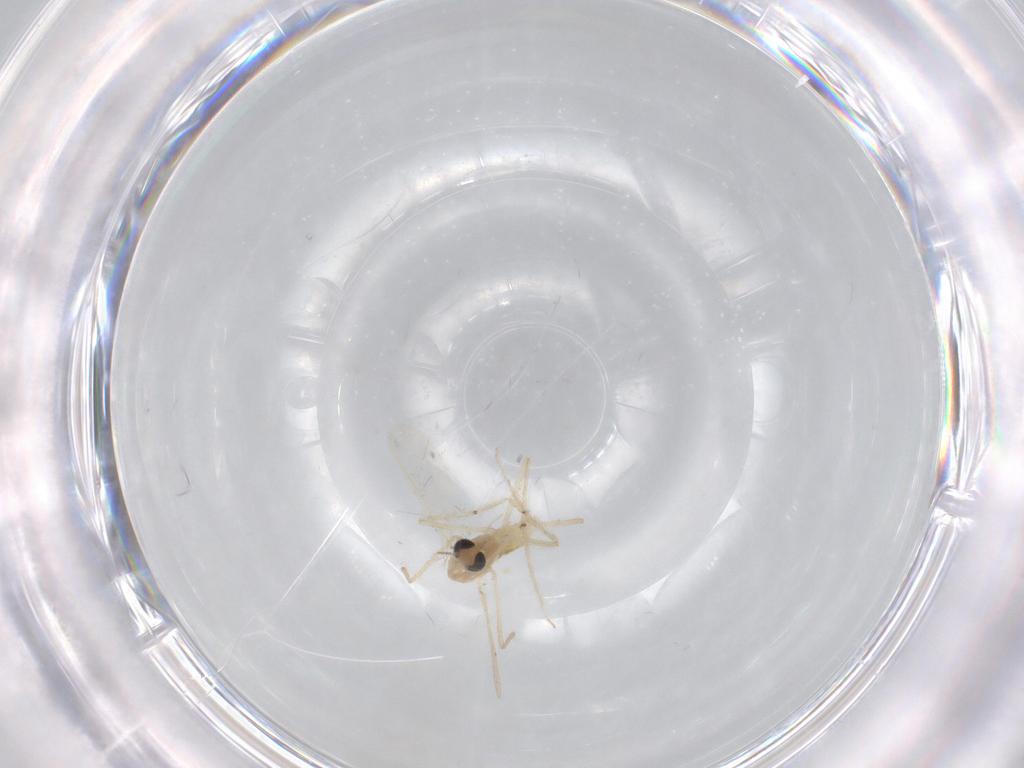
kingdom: Animalia
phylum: Arthropoda
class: Insecta
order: Diptera
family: Chironomidae
